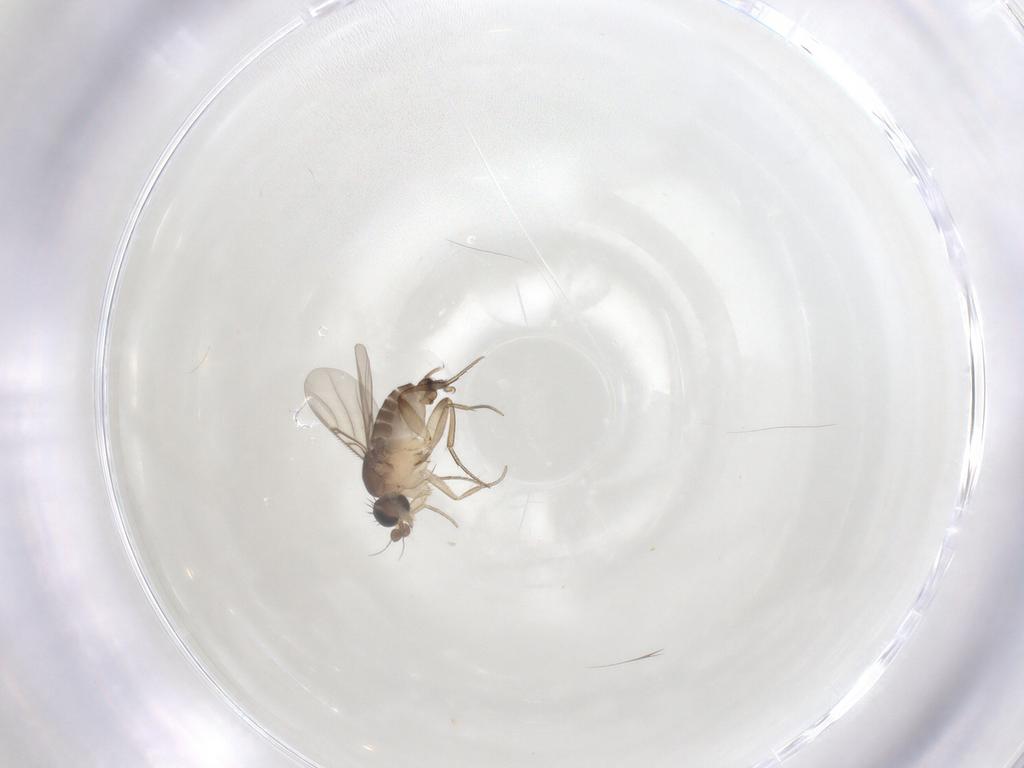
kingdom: Animalia
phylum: Arthropoda
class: Insecta
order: Diptera
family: Phoridae
